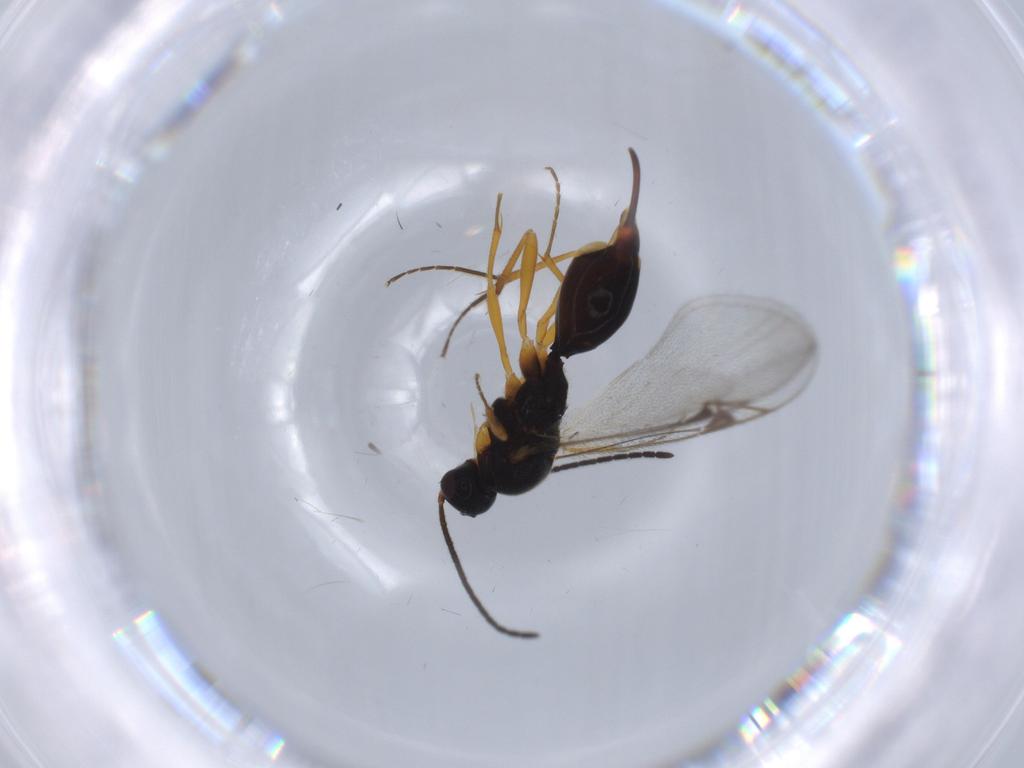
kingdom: Animalia
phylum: Arthropoda
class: Insecta
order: Hymenoptera
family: Proctotrupidae
